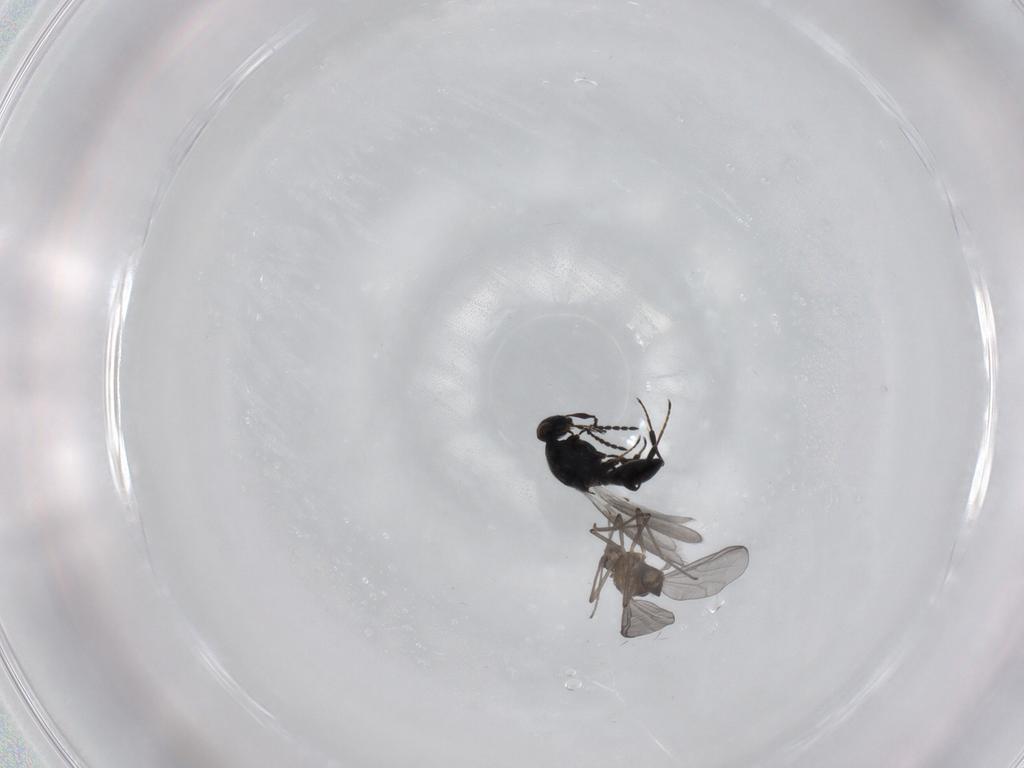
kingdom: Animalia
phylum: Arthropoda
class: Insecta
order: Diptera
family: Chironomidae
